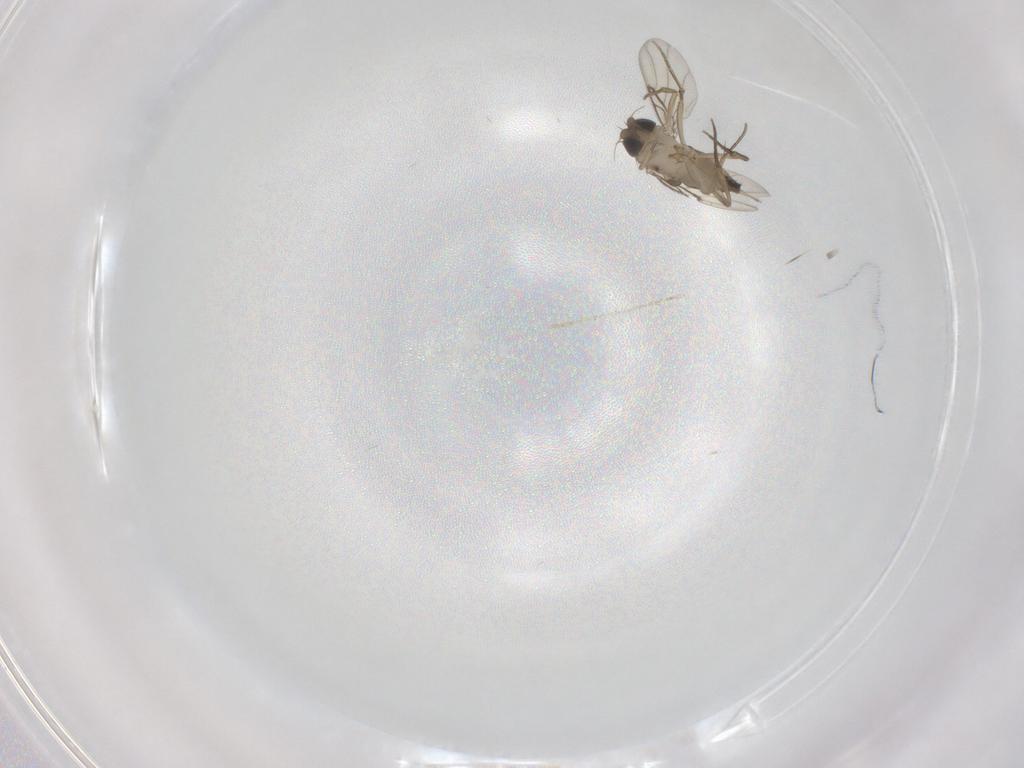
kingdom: Animalia
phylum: Arthropoda
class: Insecta
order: Diptera
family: Phoridae
